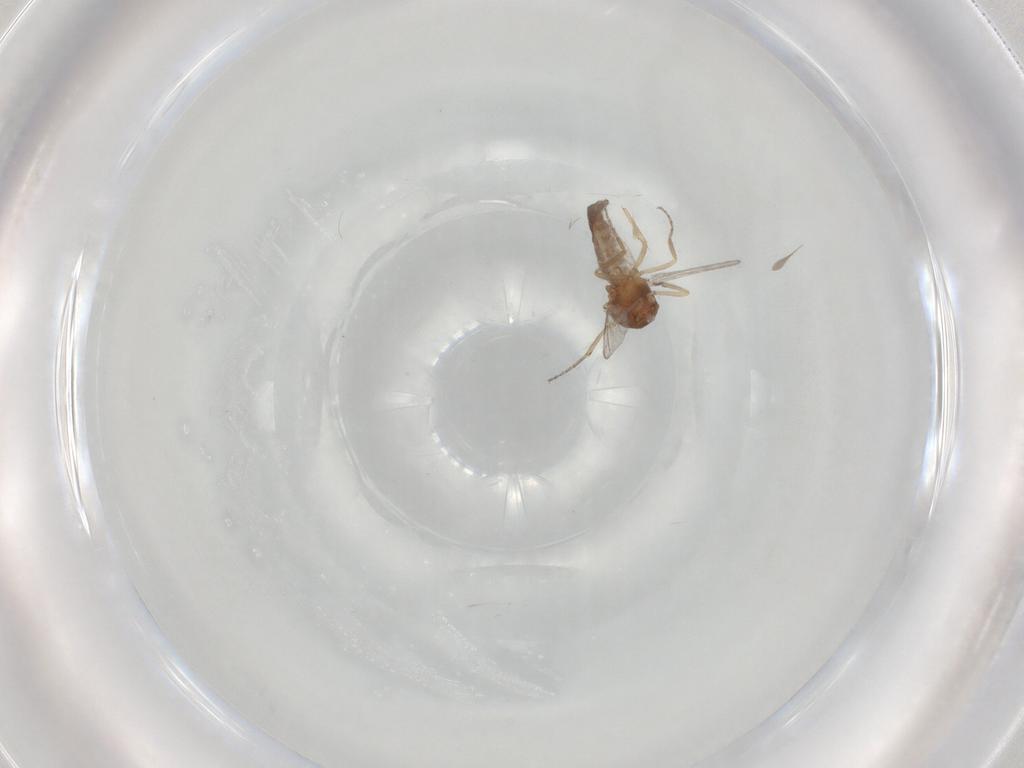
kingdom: Animalia
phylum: Arthropoda
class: Insecta
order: Diptera
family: Ceratopogonidae
